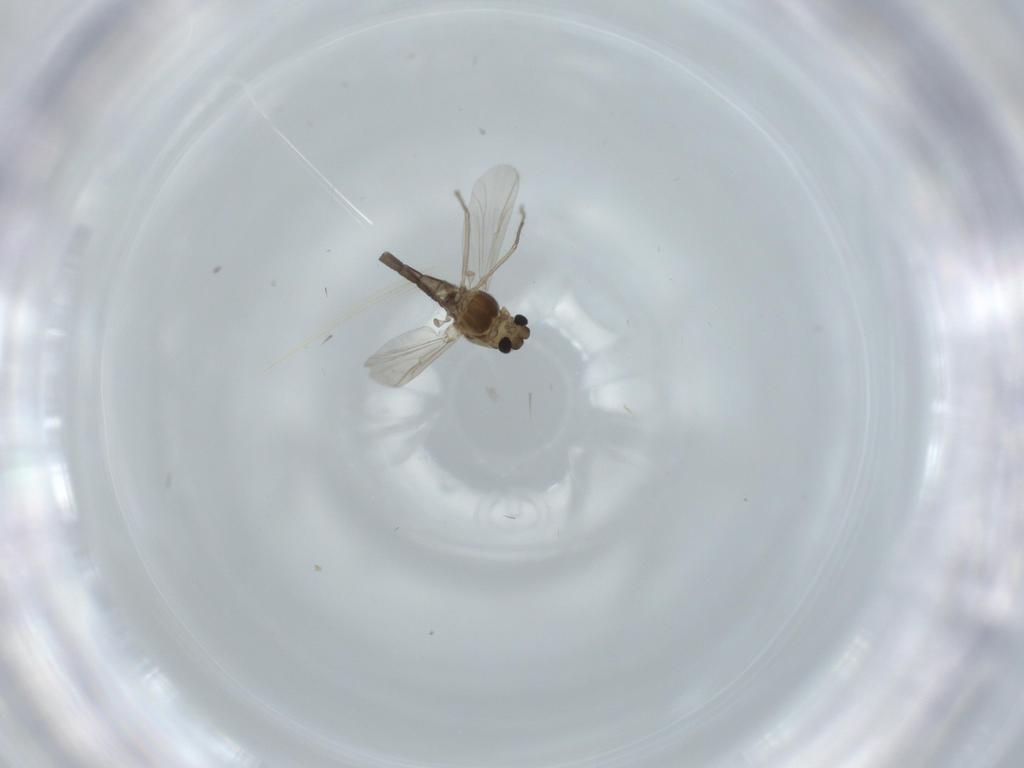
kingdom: Animalia
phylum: Arthropoda
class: Insecta
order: Diptera
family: Chironomidae
